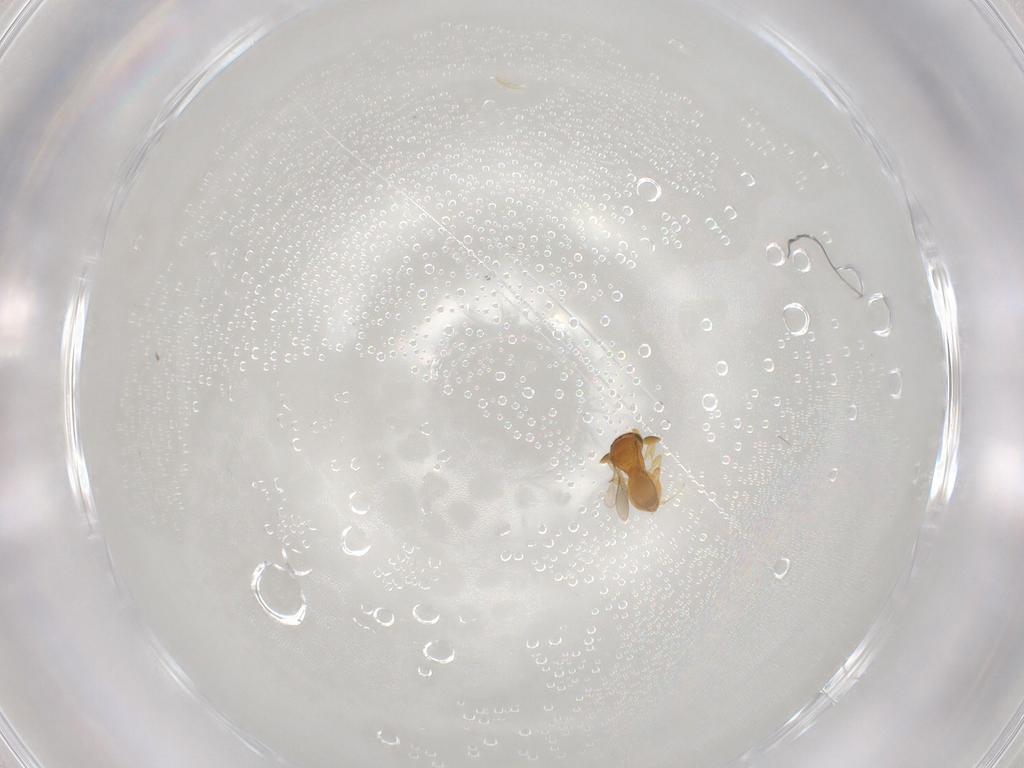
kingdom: Animalia
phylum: Arthropoda
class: Insecta
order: Hymenoptera
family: Scelionidae
